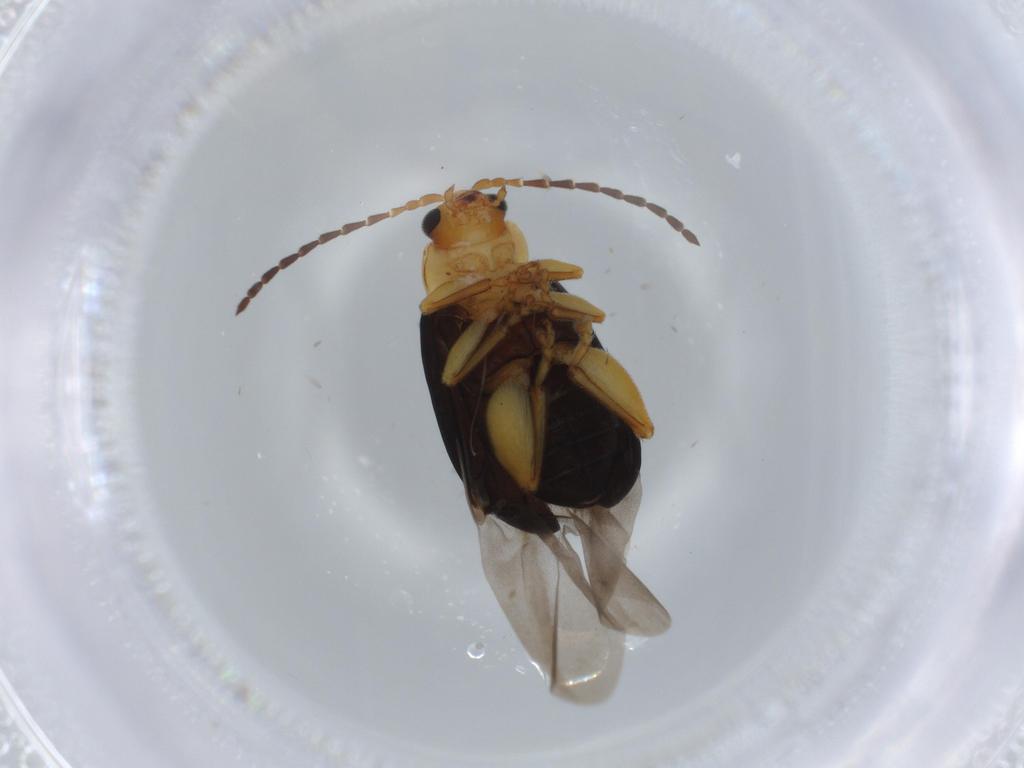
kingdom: Animalia
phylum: Arthropoda
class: Insecta
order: Coleoptera
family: Chrysomelidae
